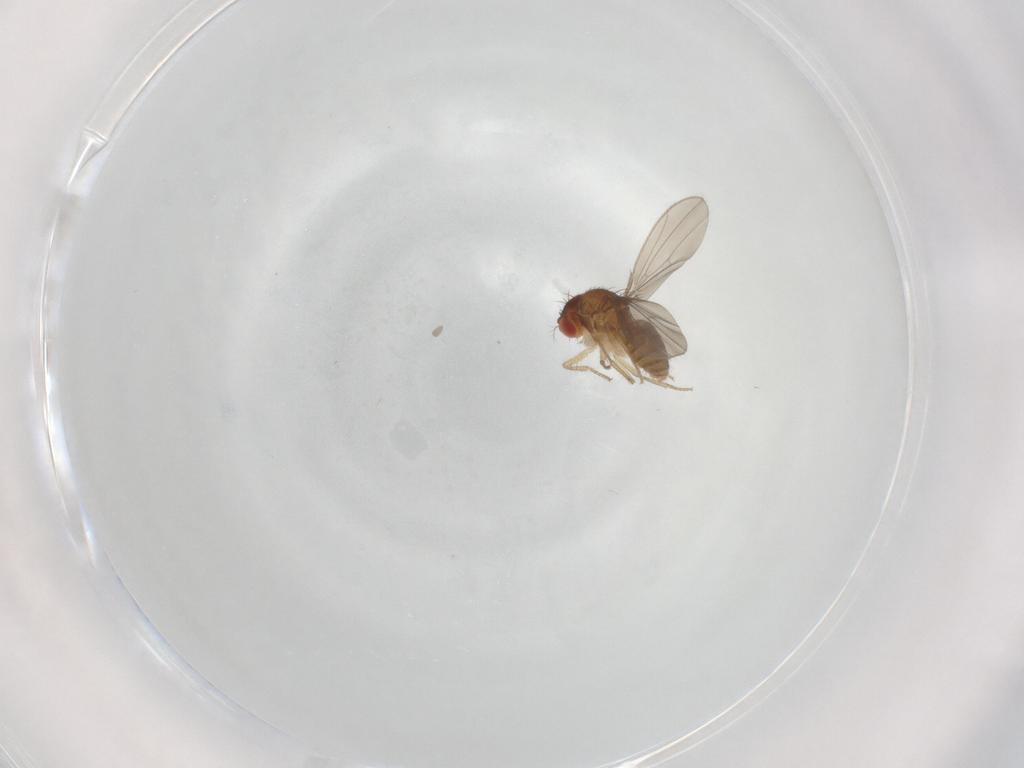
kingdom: Animalia
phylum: Arthropoda
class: Insecta
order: Diptera
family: Drosophilidae
